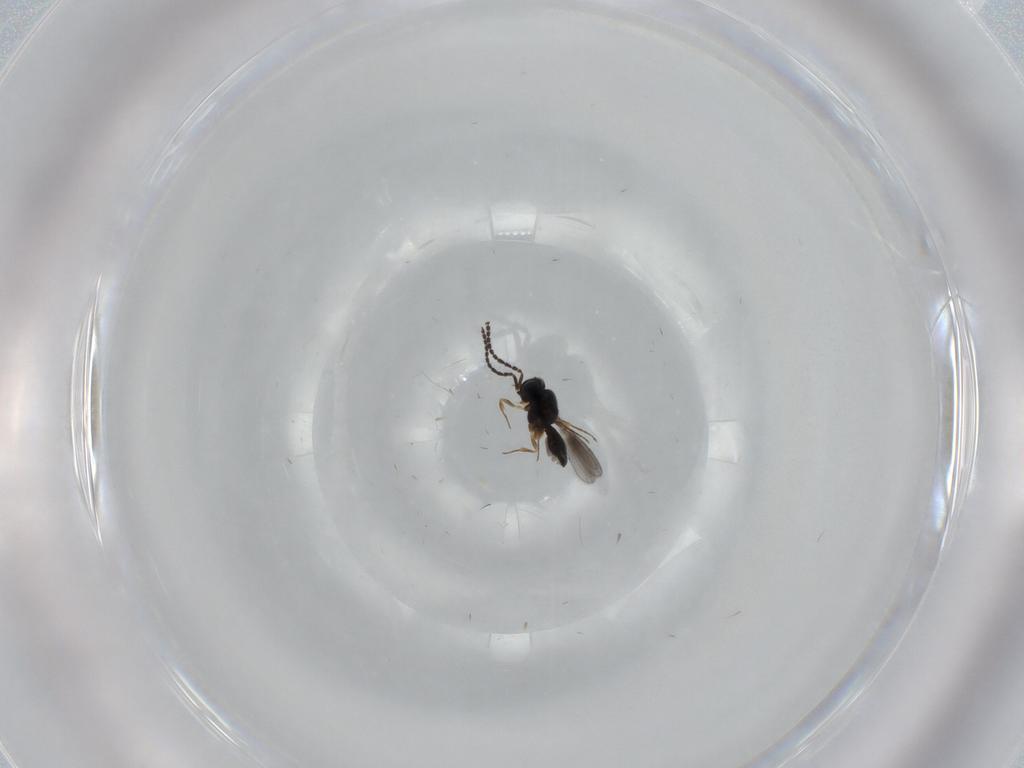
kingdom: Animalia
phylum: Arthropoda
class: Insecta
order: Hymenoptera
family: Scelionidae
